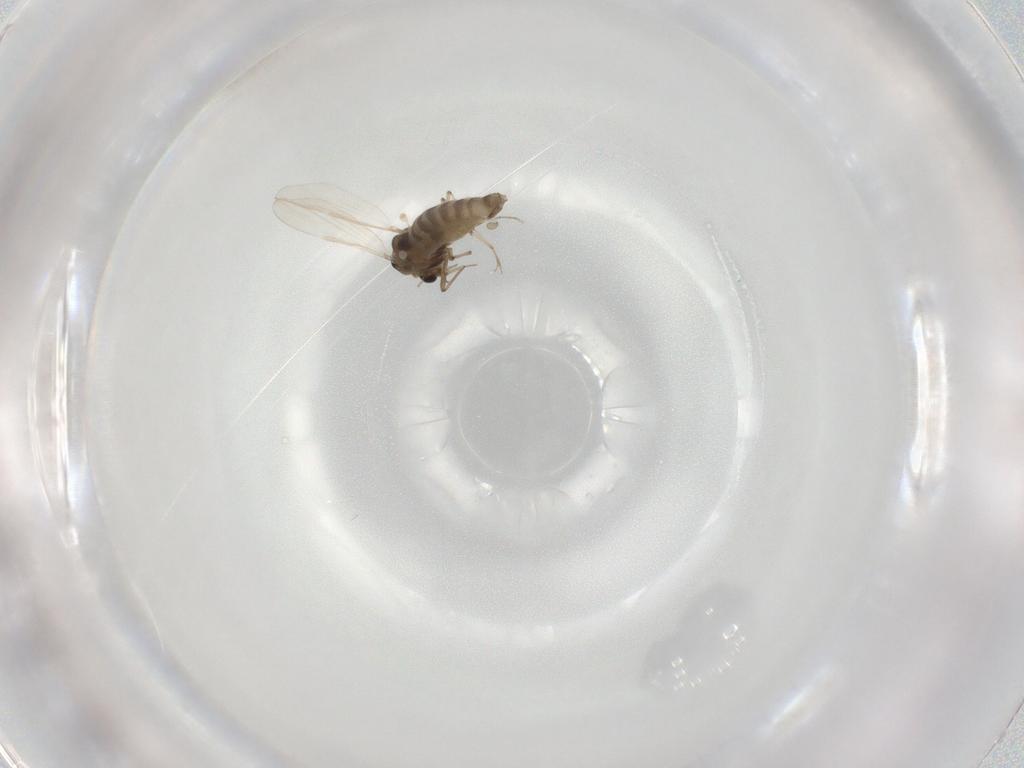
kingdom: Animalia
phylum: Arthropoda
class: Insecta
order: Diptera
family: Chironomidae
